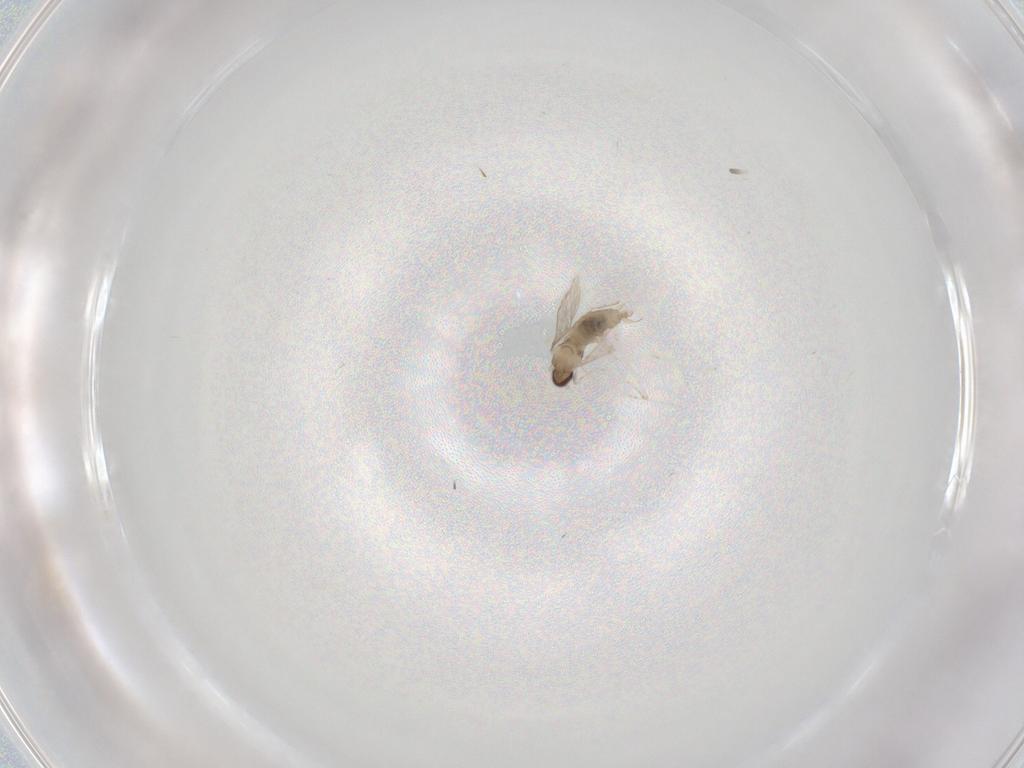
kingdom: Animalia
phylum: Arthropoda
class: Insecta
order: Diptera
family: Cecidomyiidae
